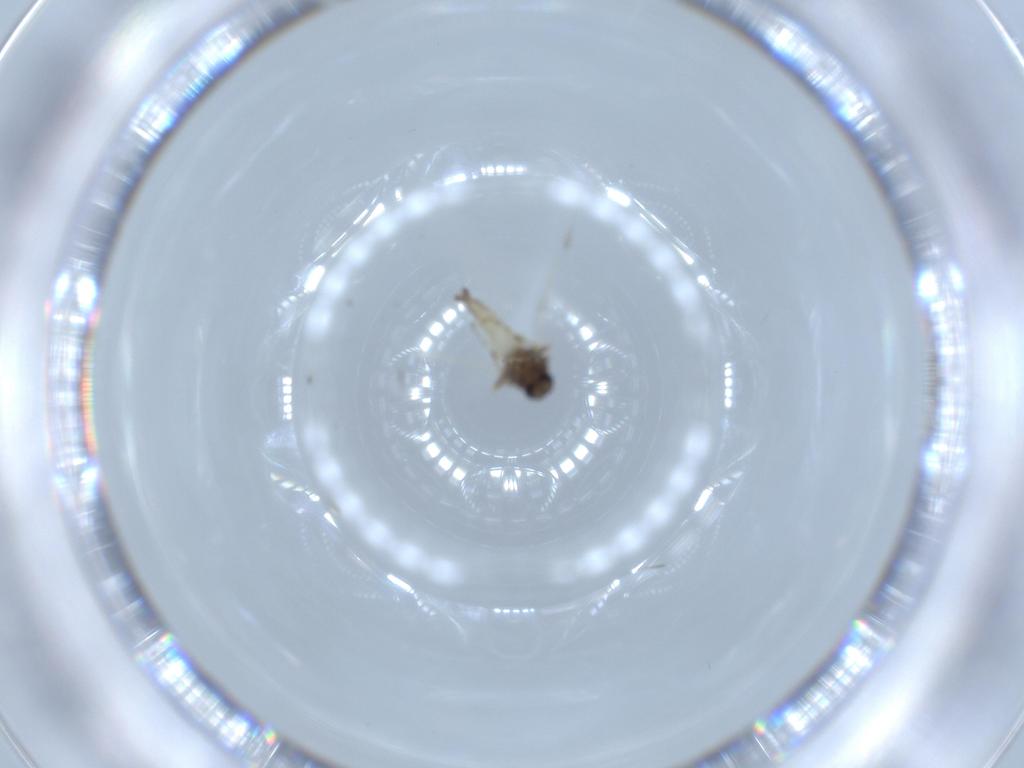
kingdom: Animalia
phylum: Arthropoda
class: Insecta
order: Diptera
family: Ceratopogonidae
